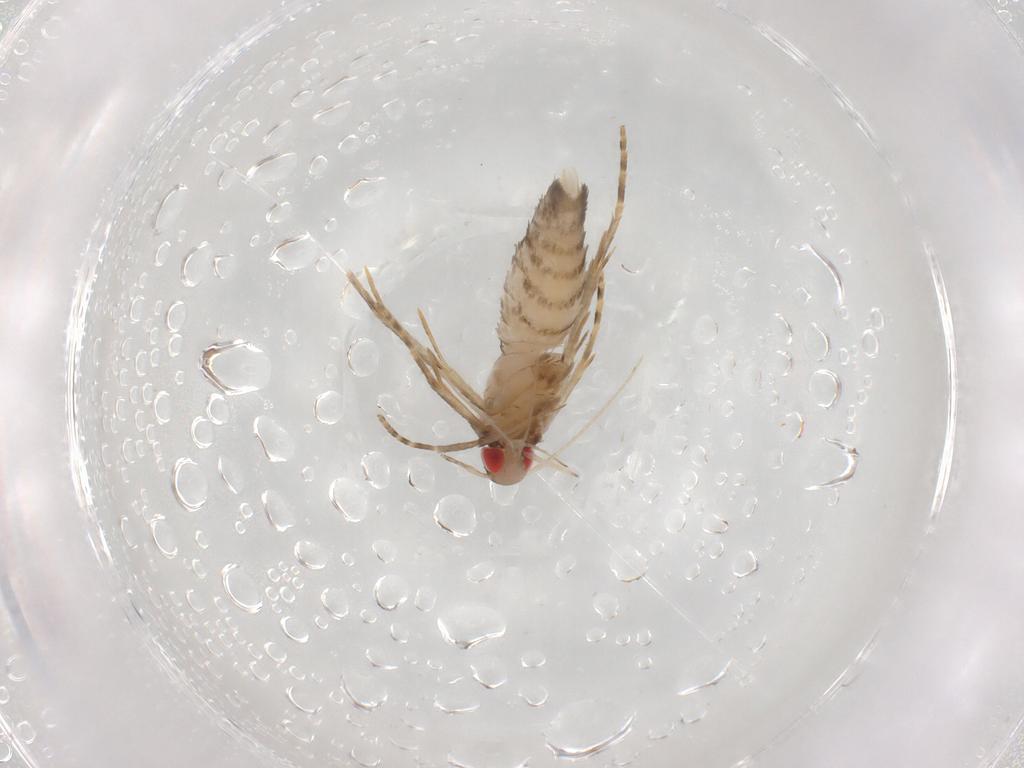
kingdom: Animalia
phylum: Arthropoda
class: Insecta
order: Lepidoptera
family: Gelechiidae
